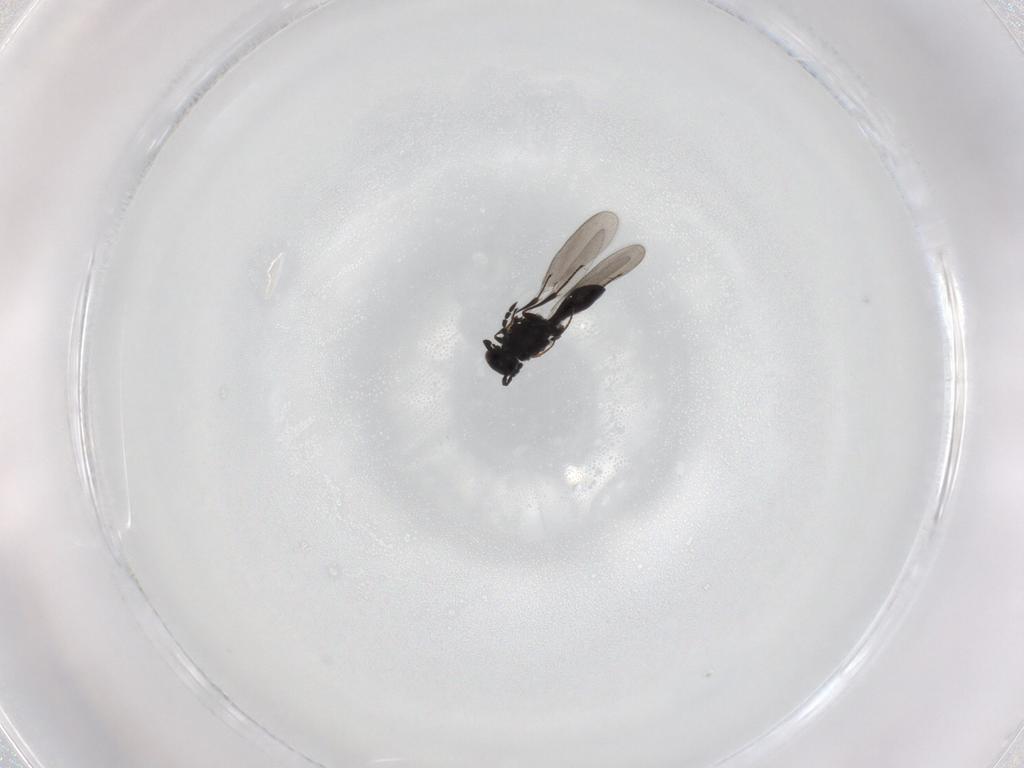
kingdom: Animalia
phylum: Arthropoda
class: Insecta
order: Hymenoptera
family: Platygastridae
